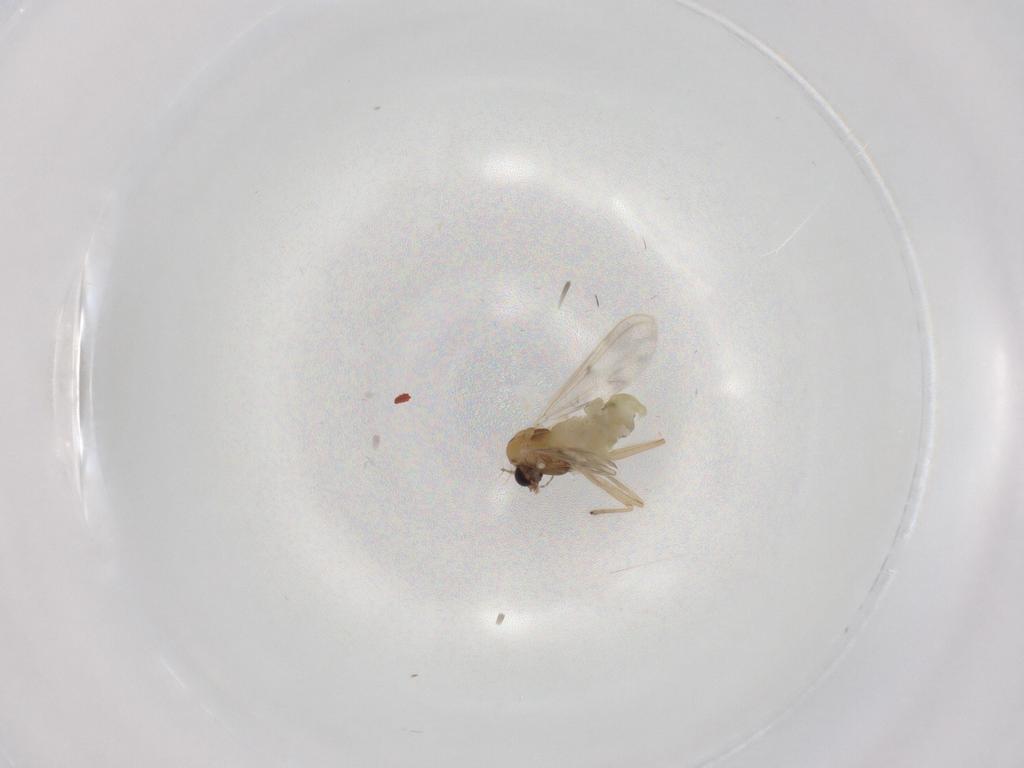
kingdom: Animalia
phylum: Arthropoda
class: Insecta
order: Diptera
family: Chironomidae
